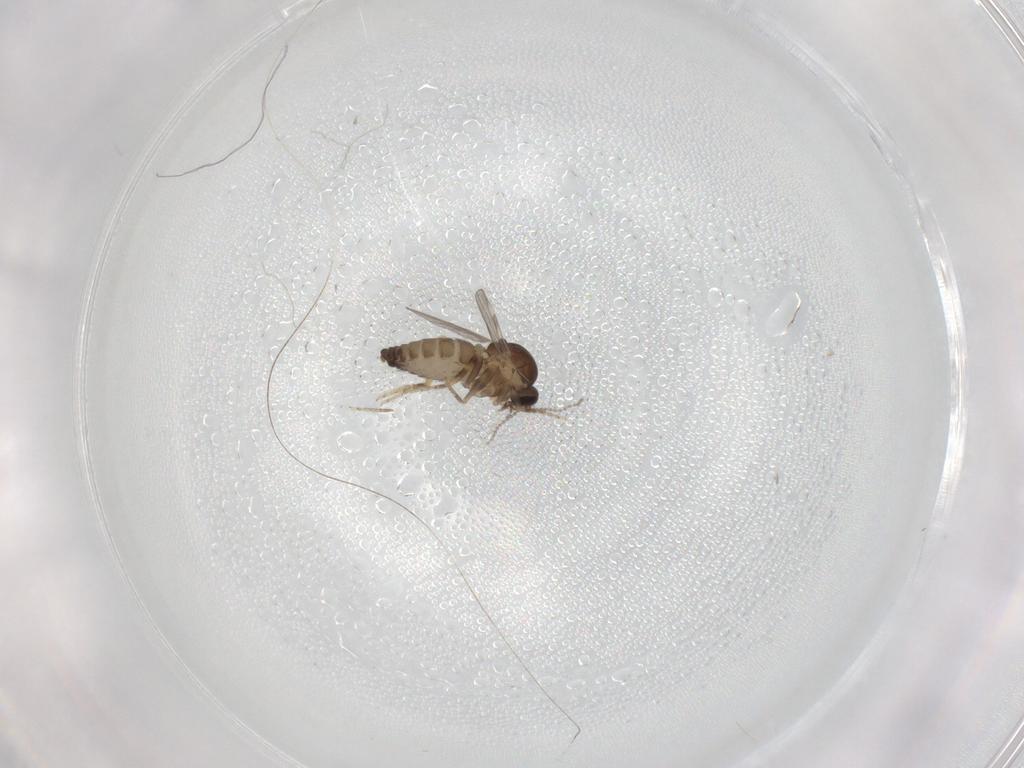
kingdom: Animalia
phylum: Arthropoda
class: Insecta
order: Diptera
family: Ceratopogonidae
